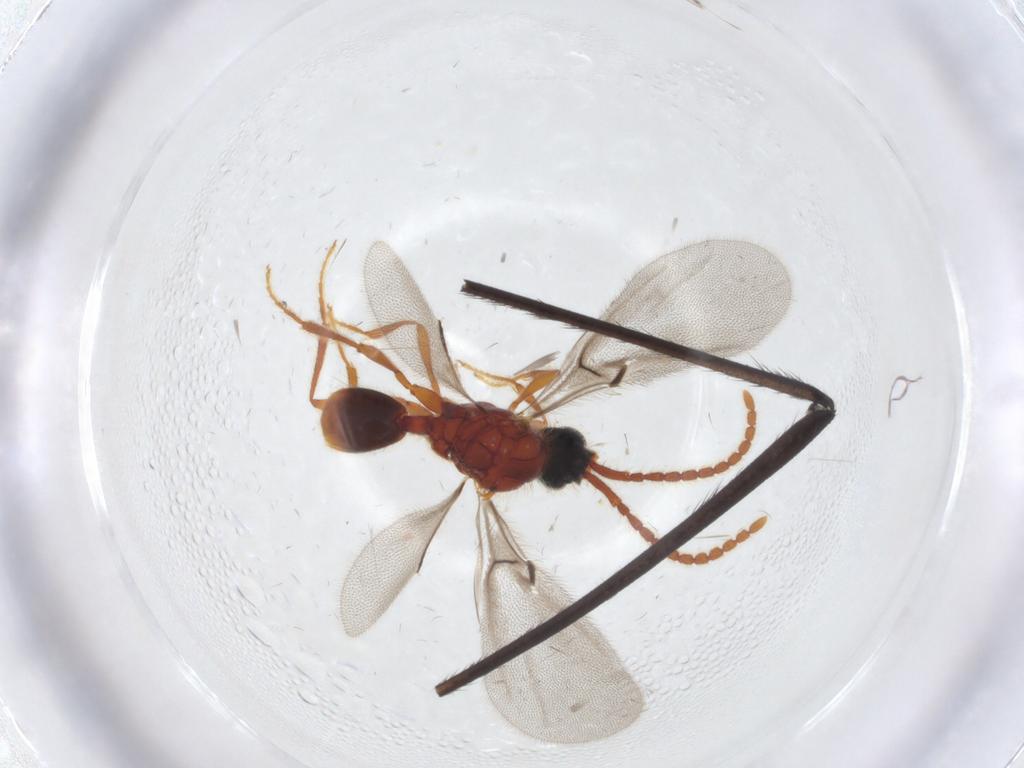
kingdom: Animalia
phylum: Arthropoda
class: Insecta
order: Hymenoptera
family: Diapriidae
